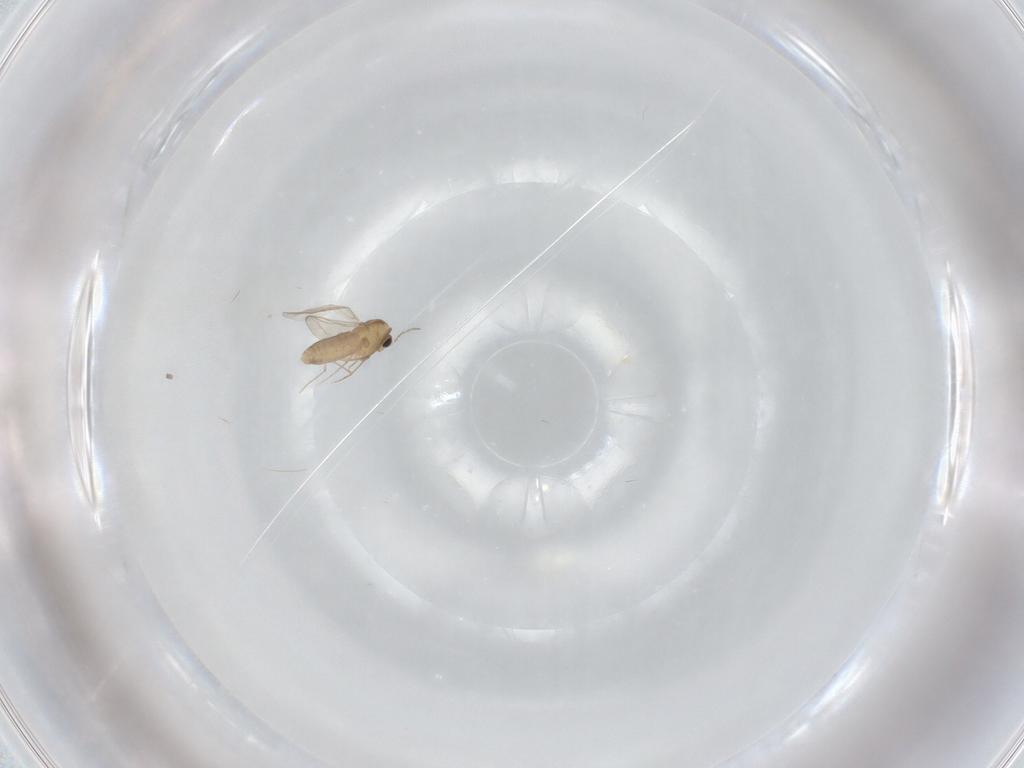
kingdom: Animalia
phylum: Arthropoda
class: Insecta
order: Diptera
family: Chironomidae
